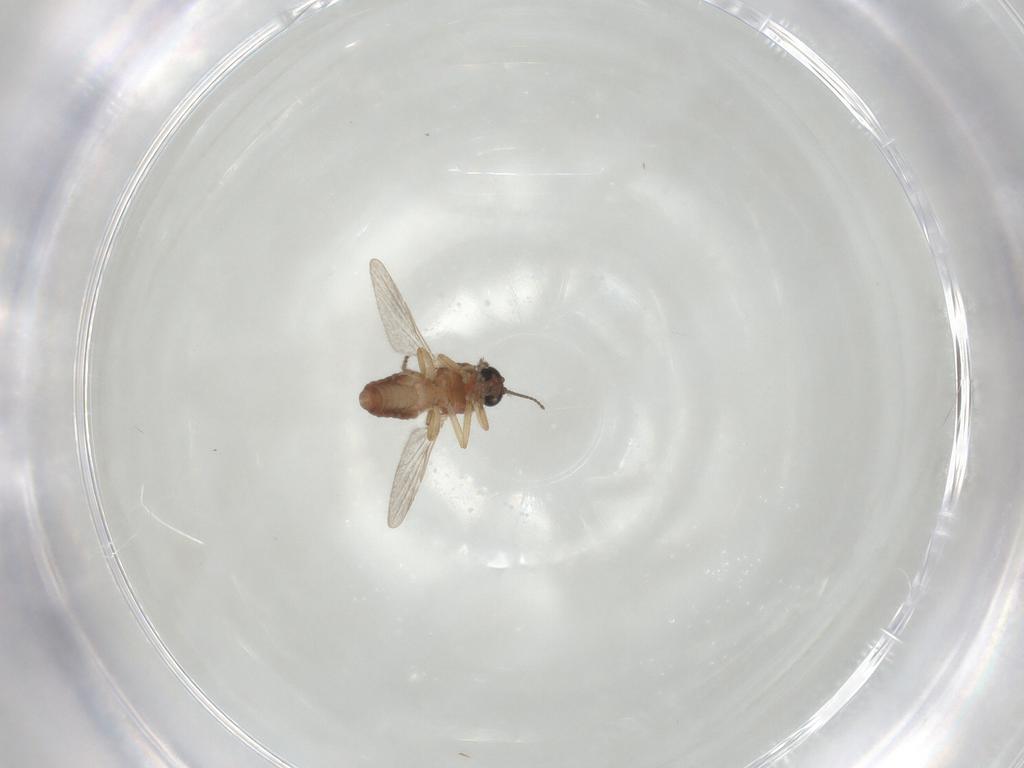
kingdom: Animalia
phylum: Arthropoda
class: Insecta
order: Diptera
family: Ceratopogonidae
